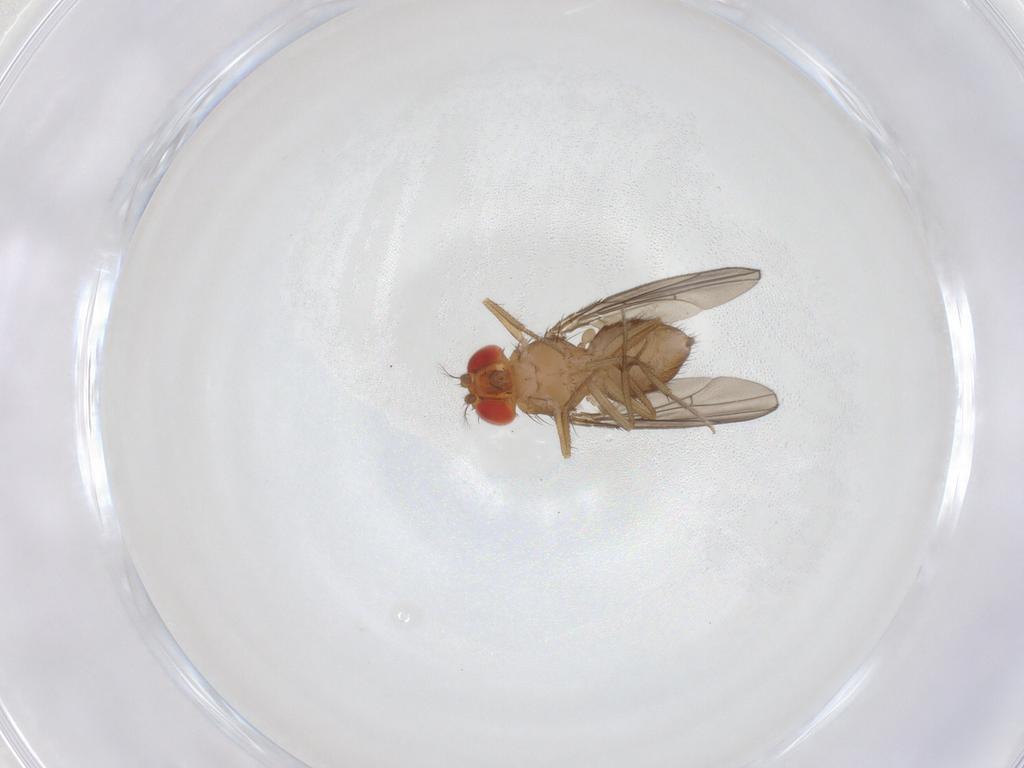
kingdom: Animalia
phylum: Arthropoda
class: Insecta
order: Diptera
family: Drosophilidae
